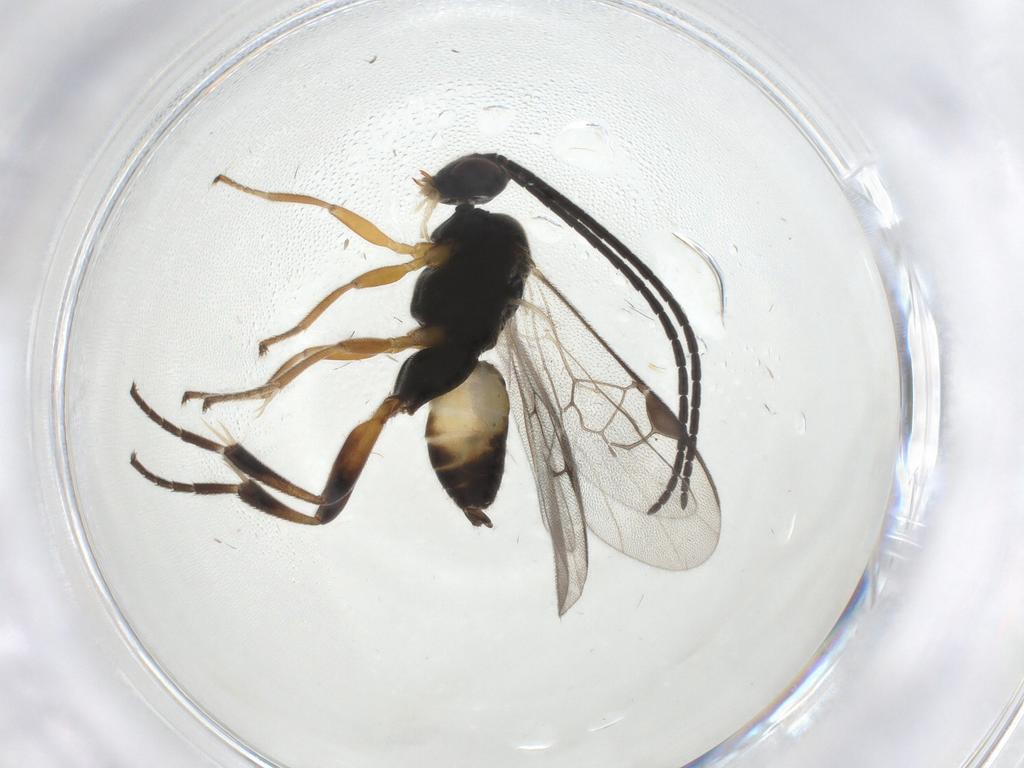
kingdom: Animalia
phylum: Arthropoda
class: Insecta
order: Hymenoptera
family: Braconidae
